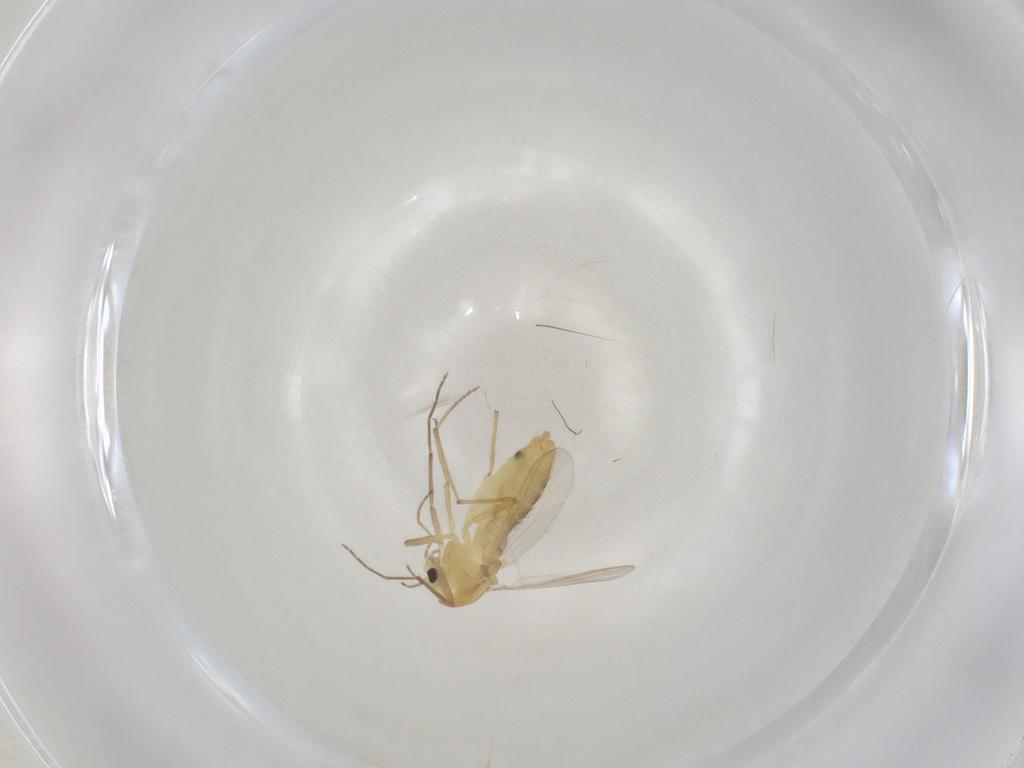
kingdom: Animalia
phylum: Arthropoda
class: Insecta
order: Diptera
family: Chironomidae
